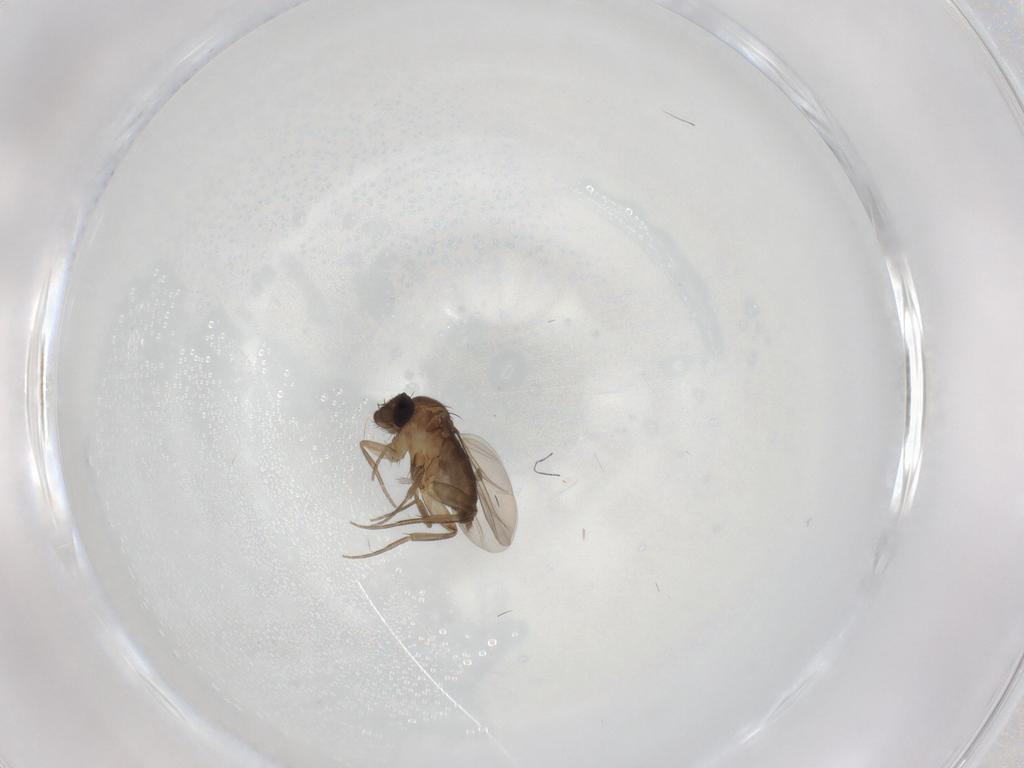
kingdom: Animalia
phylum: Arthropoda
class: Insecta
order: Diptera
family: Phoridae
